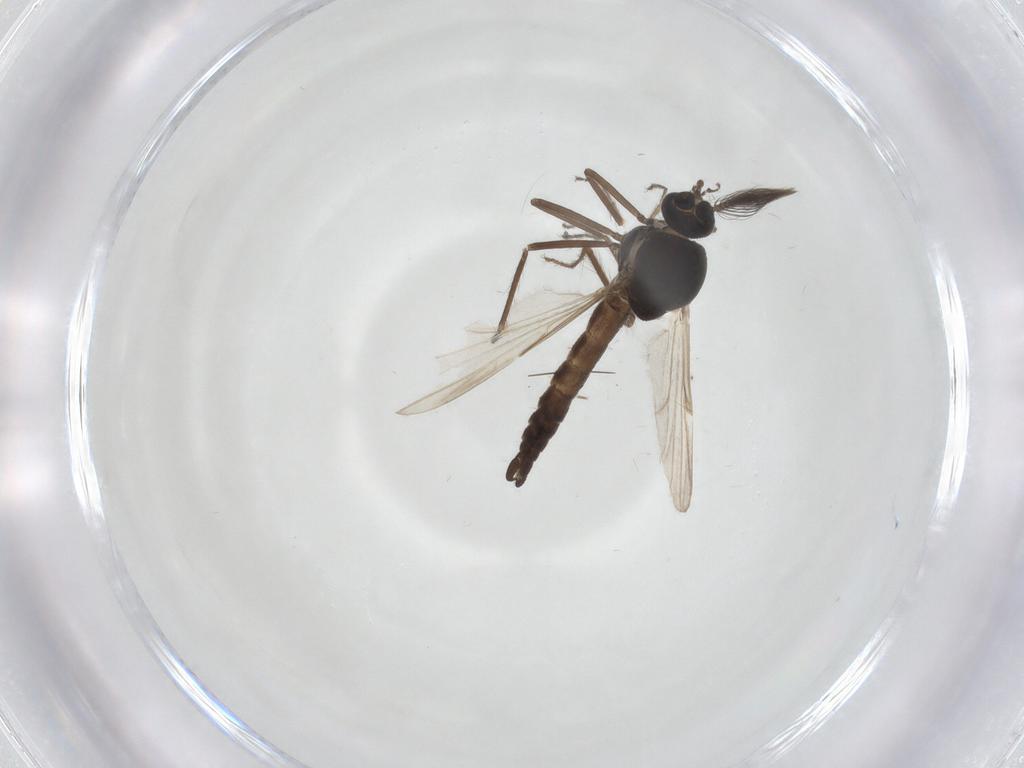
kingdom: Animalia
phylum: Arthropoda
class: Insecta
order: Diptera
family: Ceratopogonidae
